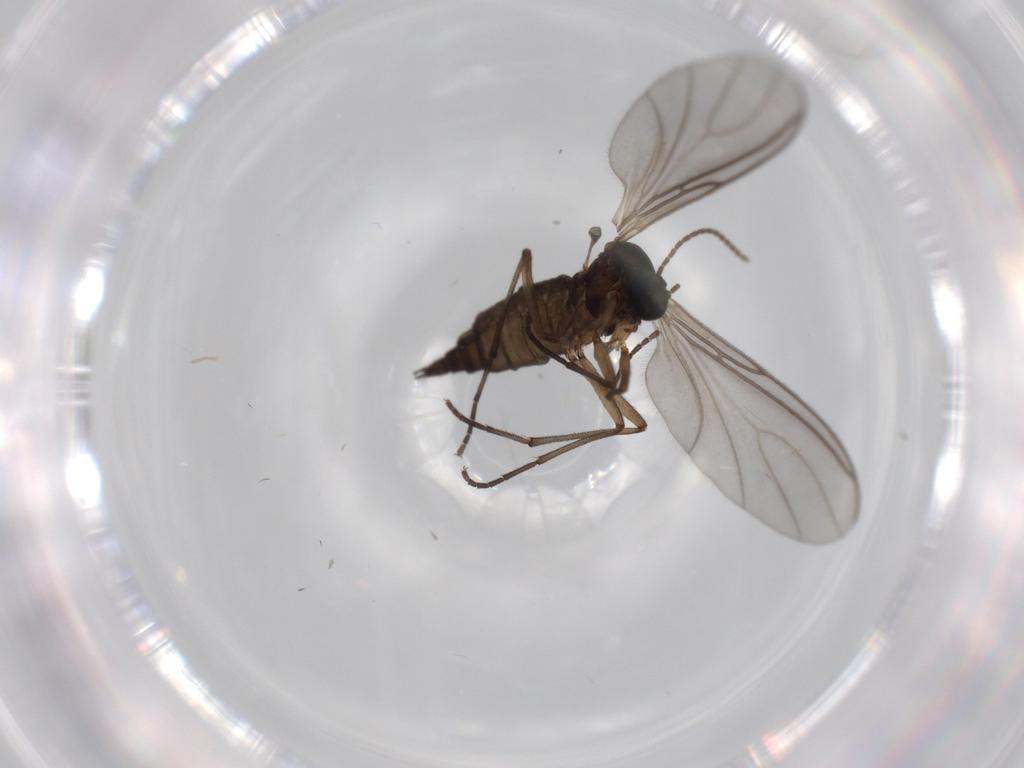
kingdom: Animalia
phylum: Arthropoda
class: Insecta
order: Diptera
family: Sciaridae
